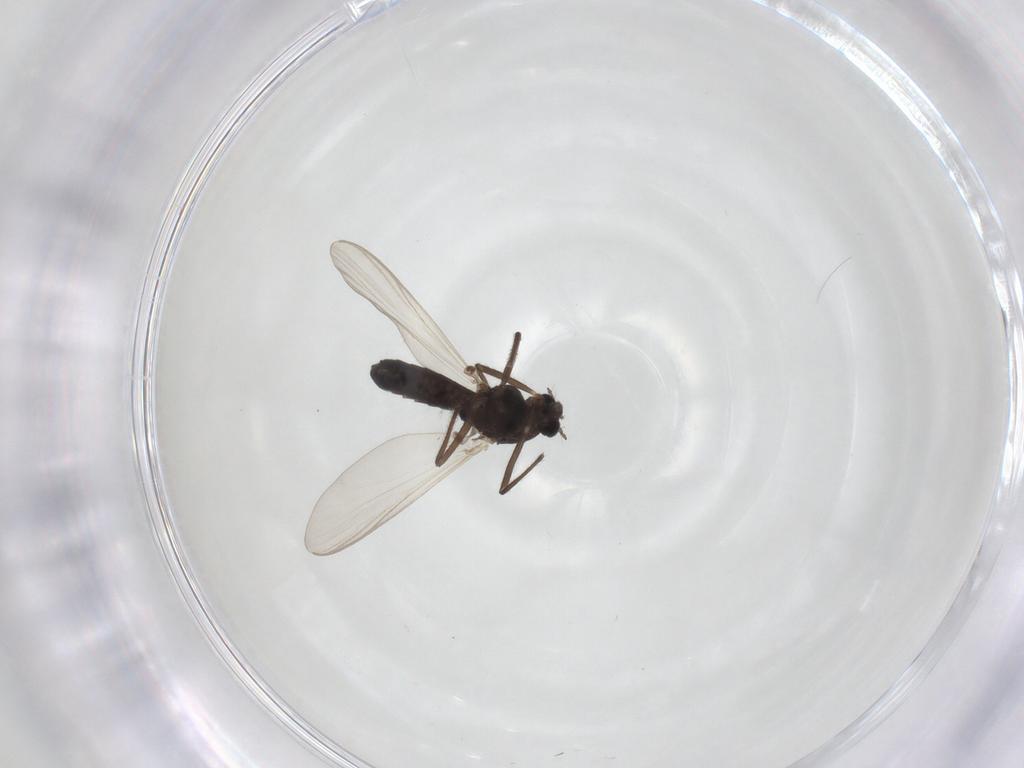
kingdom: Animalia
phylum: Arthropoda
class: Insecta
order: Diptera
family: Chironomidae
